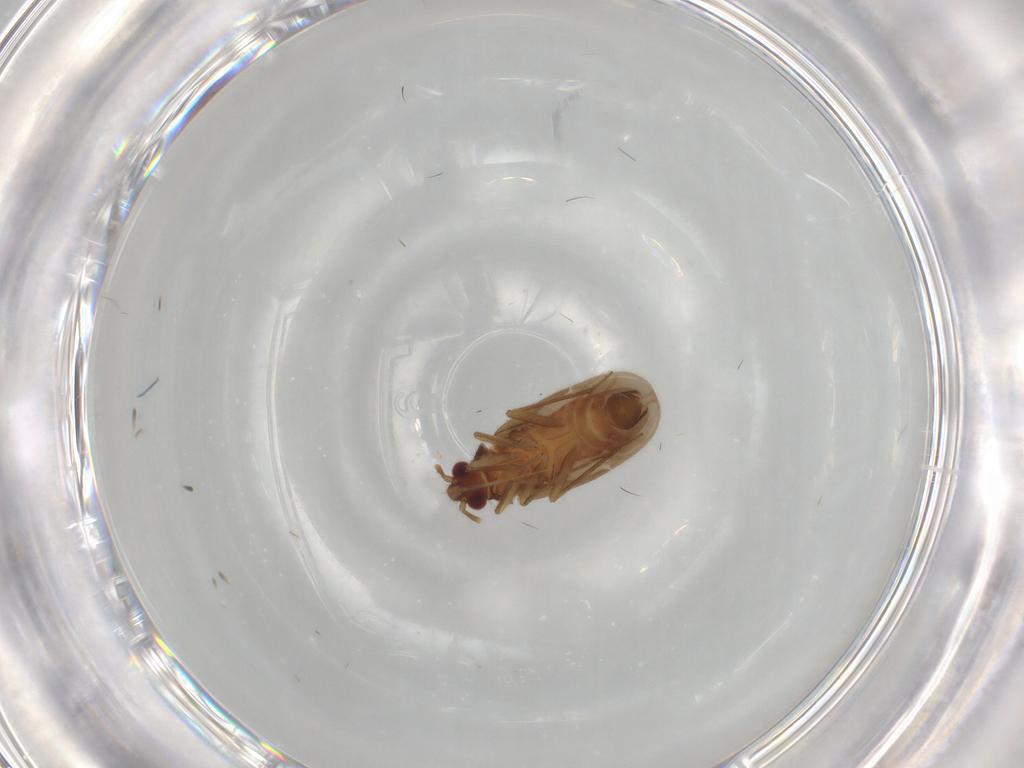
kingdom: Animalia
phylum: Arthropoda
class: Insecta
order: Hemiptera
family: Ceratocombidae
